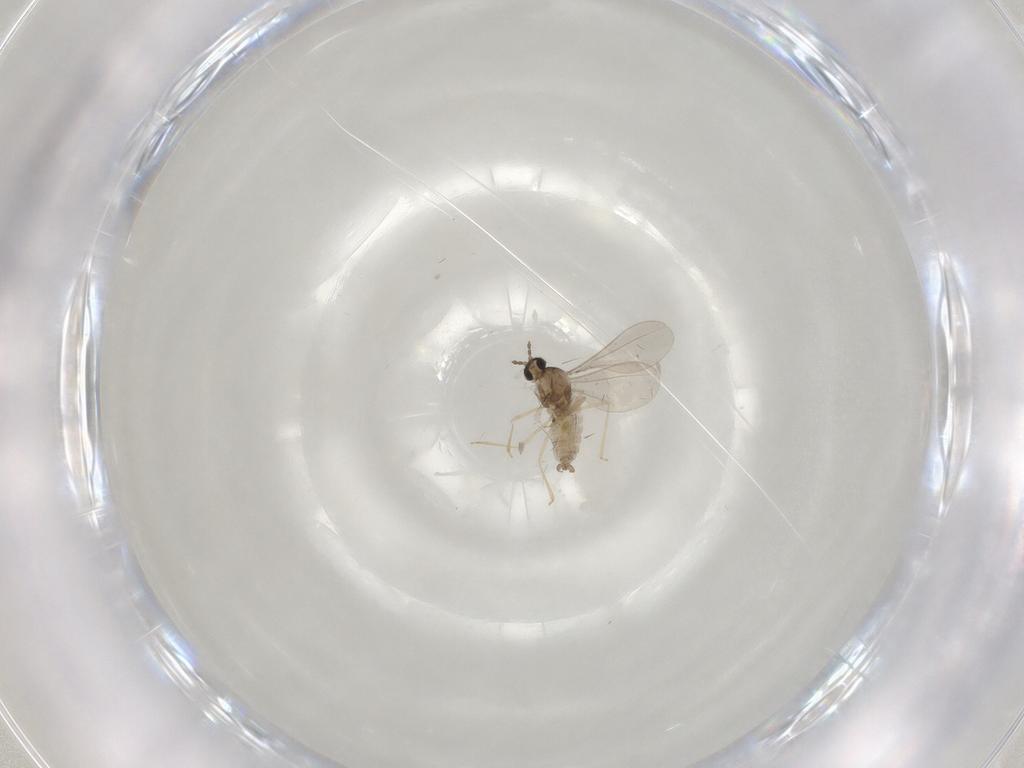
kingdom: Animalia
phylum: Arthropoda
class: Insecta
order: Diptera
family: Cecidomyiidae
